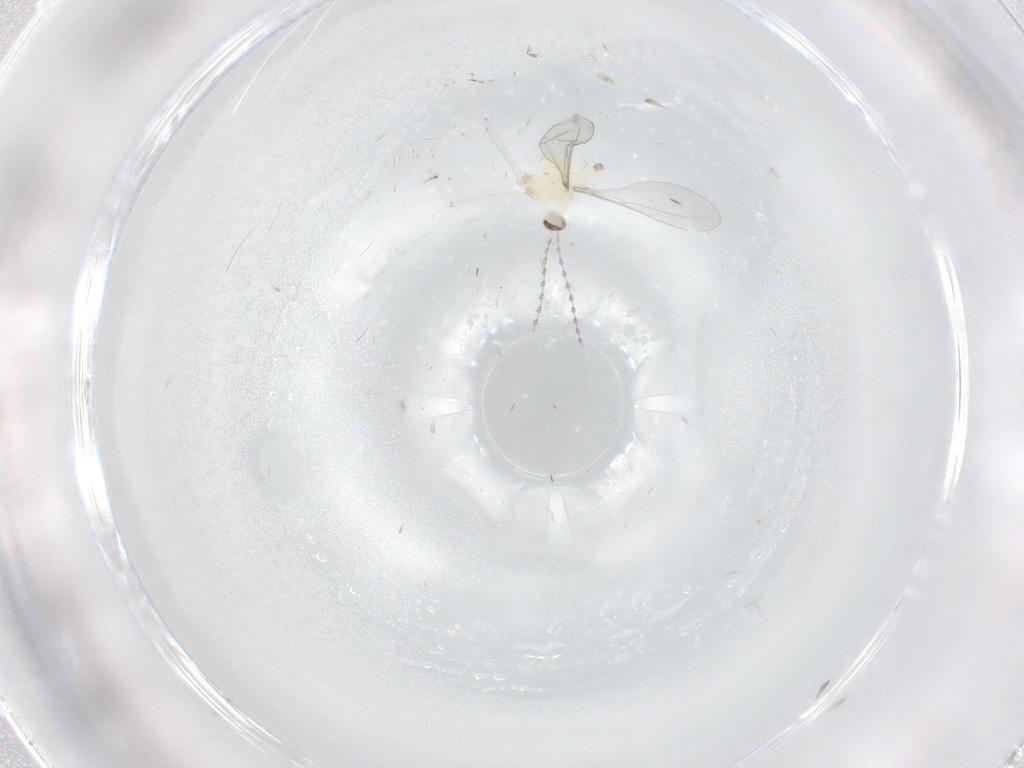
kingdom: Animalia
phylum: Arthropoda
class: Insecta
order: Diptera
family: Cecidomyiidae
